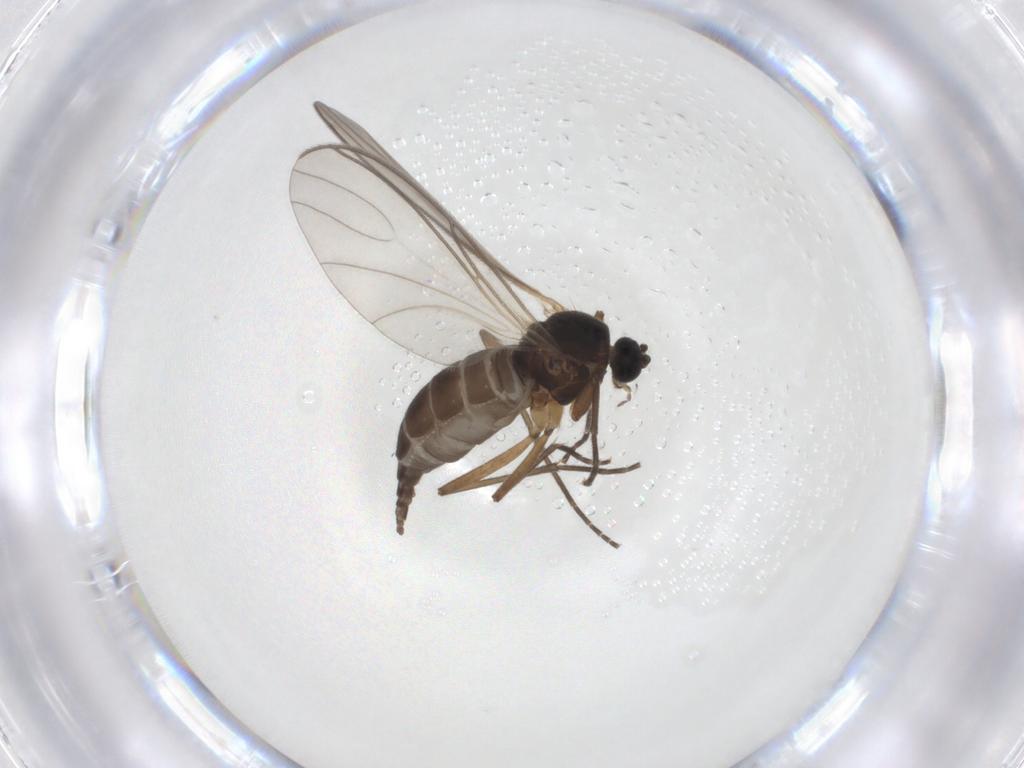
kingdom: Animalia
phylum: Arthropoda
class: Insecta
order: Diptera
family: Sciaridae
